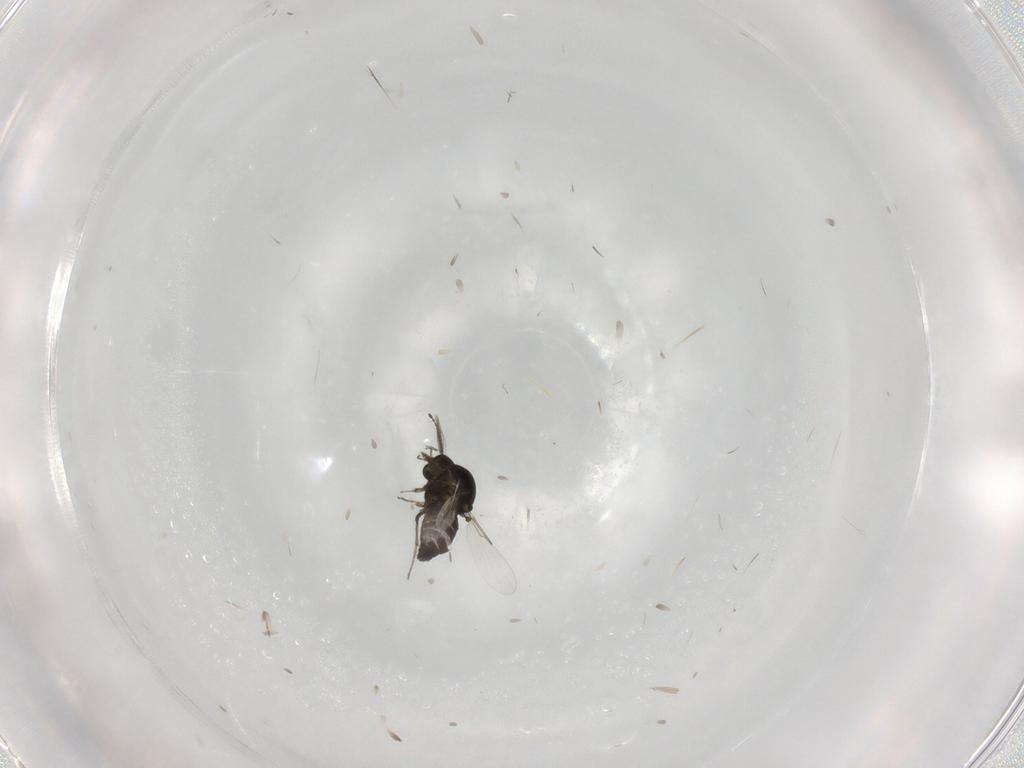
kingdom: Animalia
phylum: Arthropoda
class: Insecta
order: Diptera
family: Ceratopogonidae
